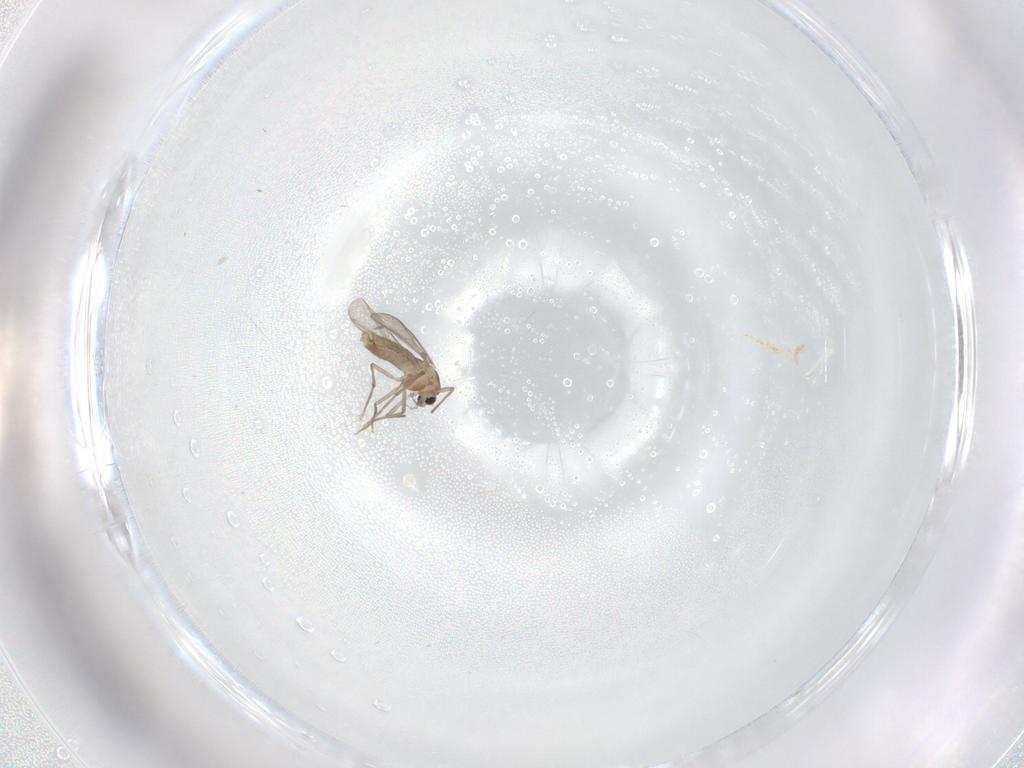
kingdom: Animalia
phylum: Arthropoda
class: Insecta
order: Diptera
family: Chironomidae
